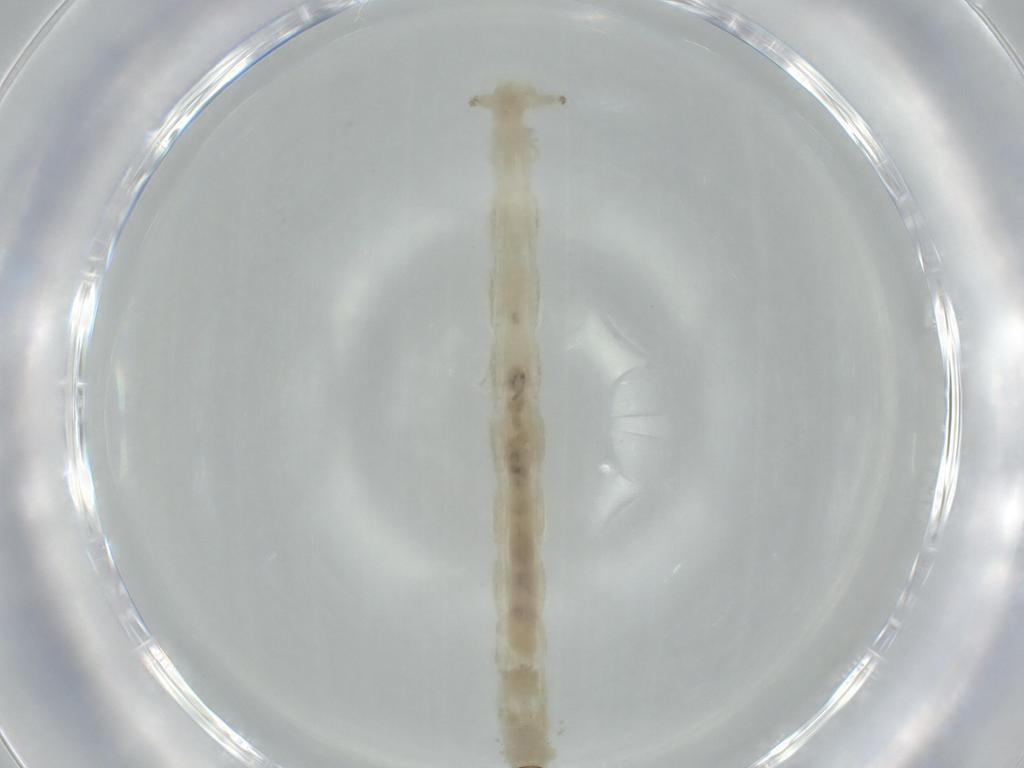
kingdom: Animalia
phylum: Arthropoda
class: Insecta
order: Diptera
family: Chironomidae
